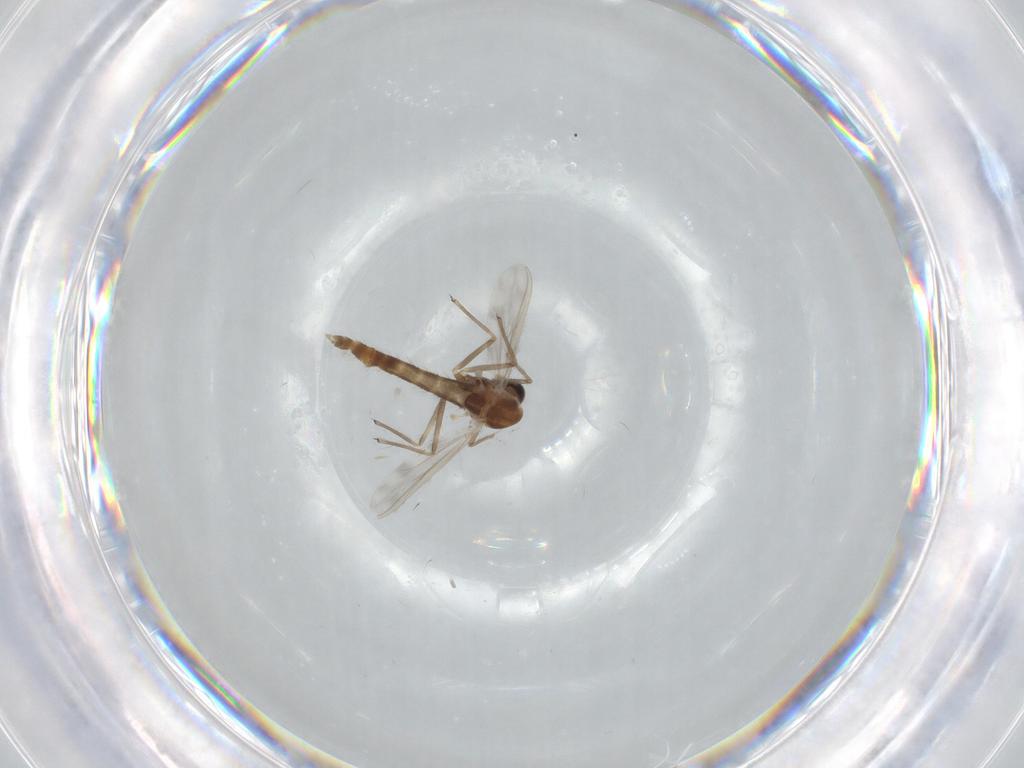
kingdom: Animalia
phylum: Arthropoda
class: Insecta
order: Diptera
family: Chironomidae
